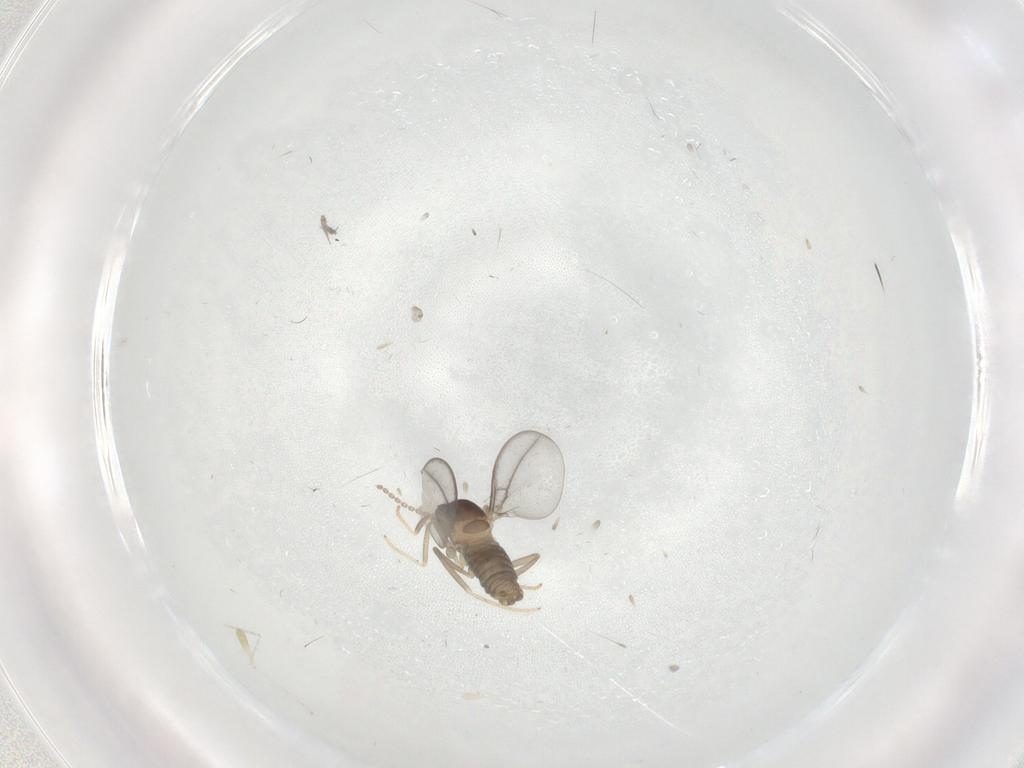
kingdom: Animalia
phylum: Arthropoda
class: Insecta
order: Diptera
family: Cecidomyiidae
